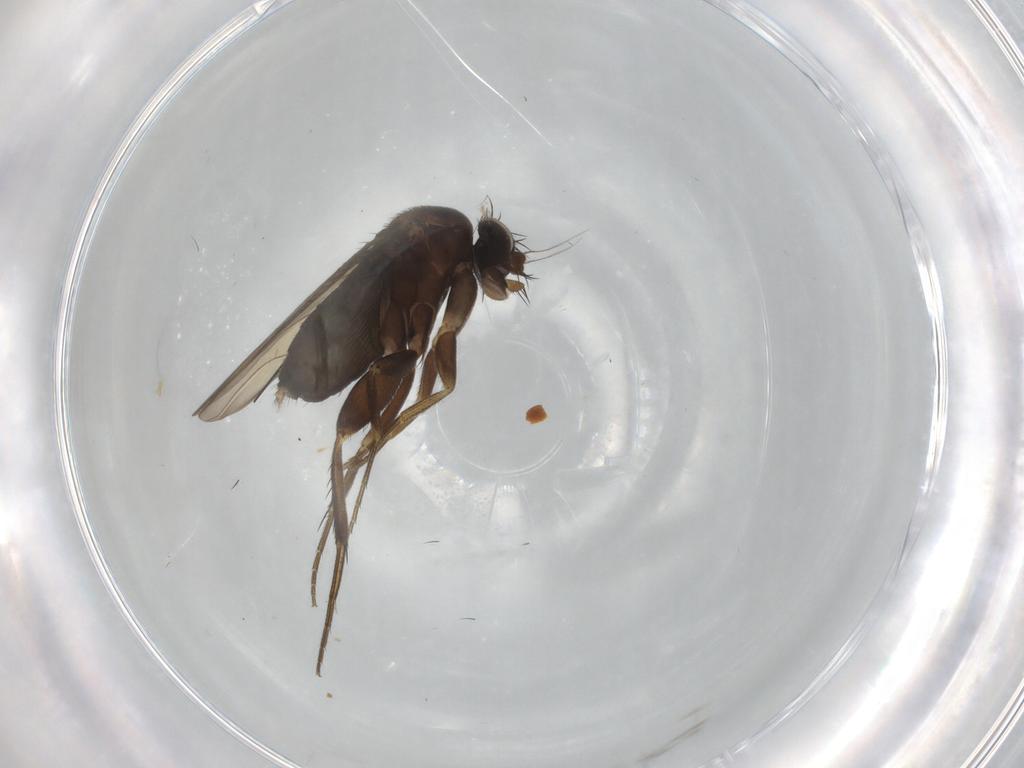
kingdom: Animalia
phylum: Arthropoda
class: Insecta
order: Diptera
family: Phoridae
